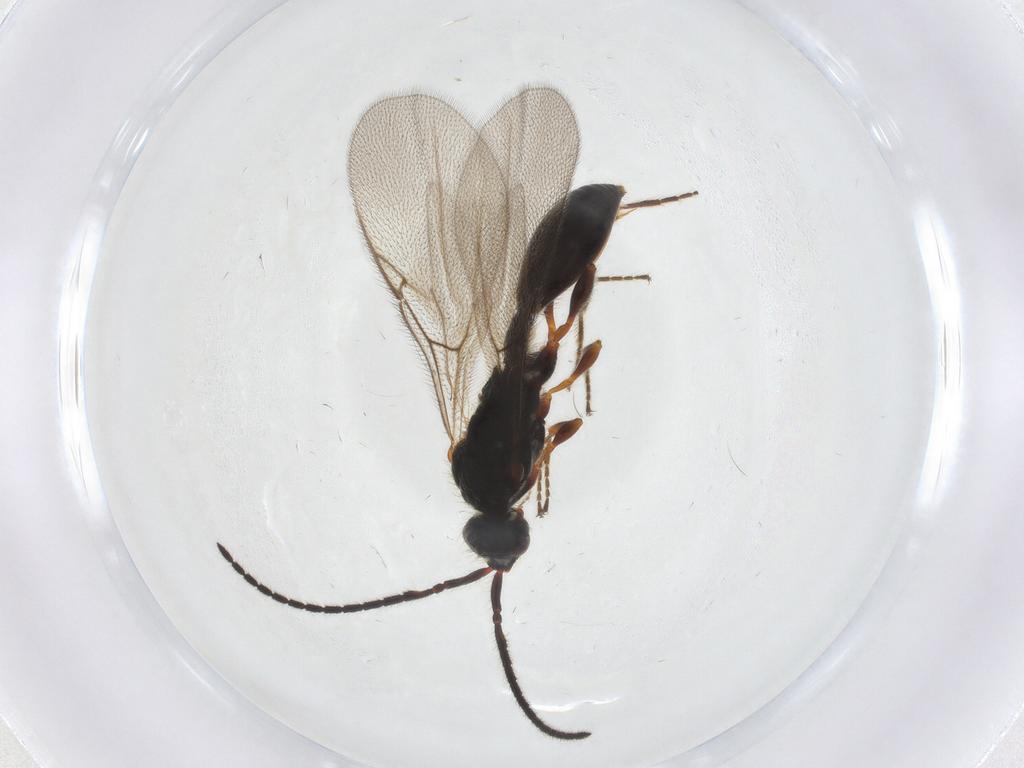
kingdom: Animalia
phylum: Arthropoda
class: Insecta
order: Hymenoptera
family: Diapriidae
